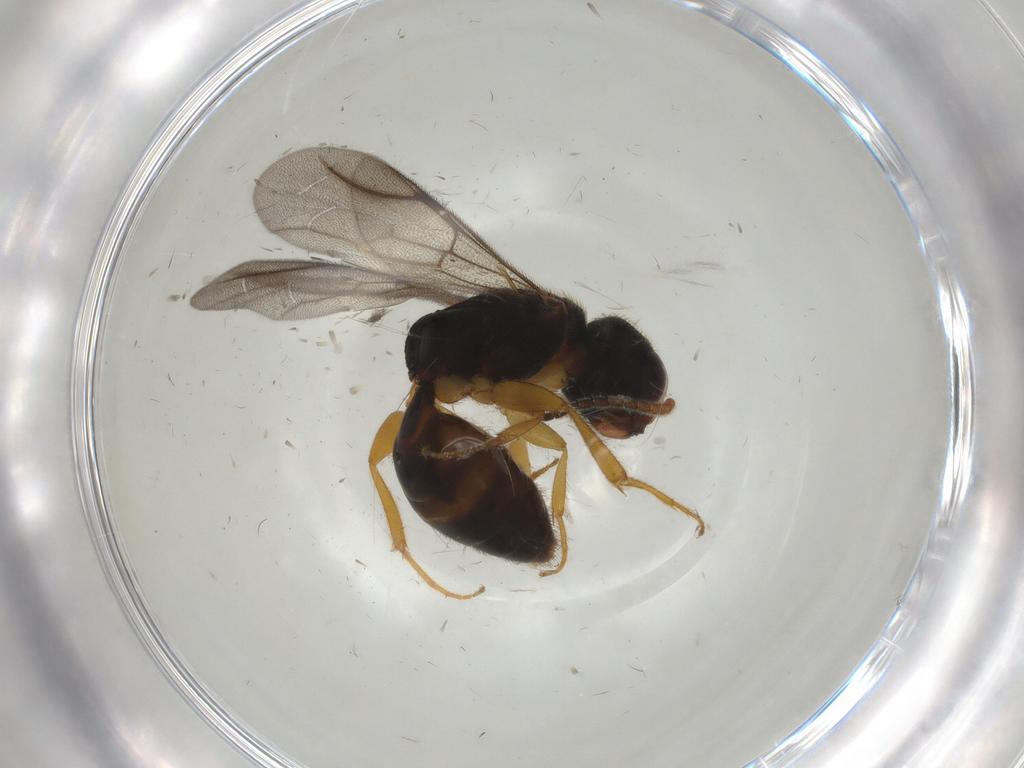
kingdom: Animalia
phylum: Arthropoda
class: Insecta
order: Hymenoptera
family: Bethylidae
